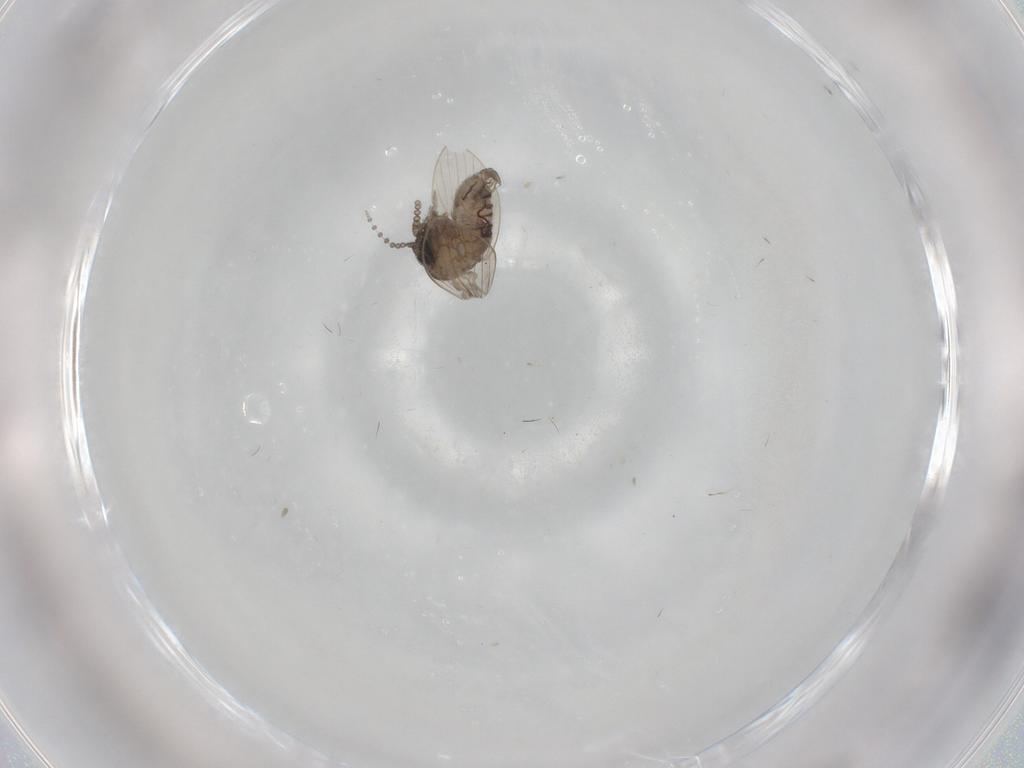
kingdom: Animalia
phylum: Arthropoda
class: Insecta
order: Diptera
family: Psychodidae
